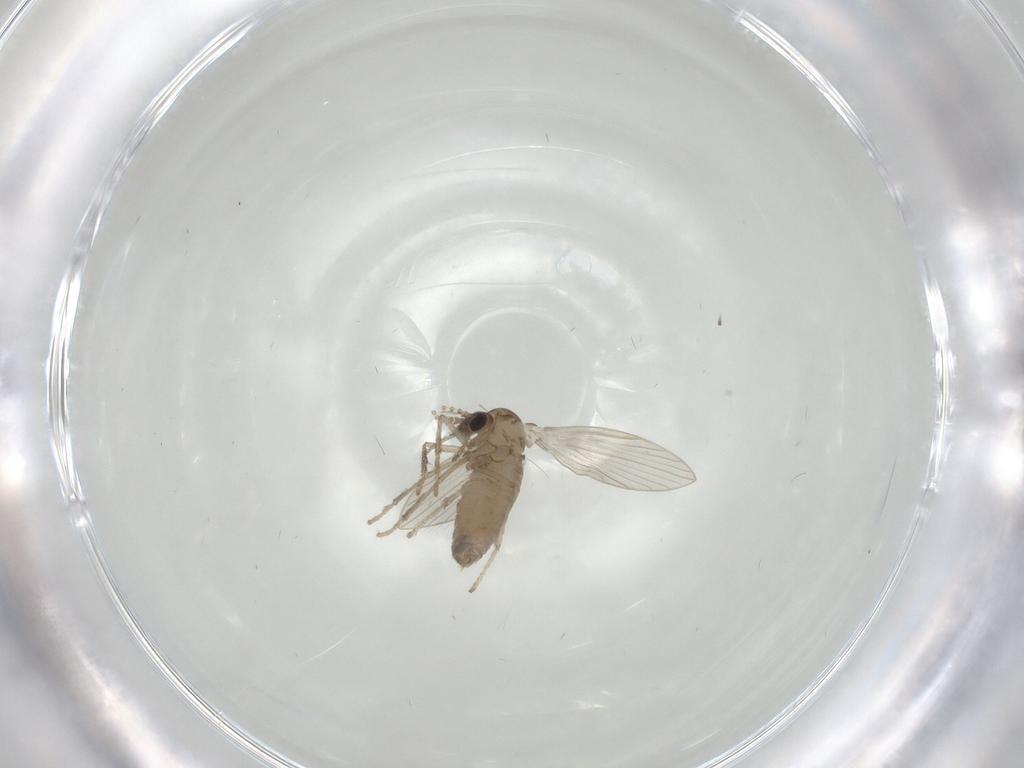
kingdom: Animalia
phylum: Arthropoda
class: Insecta
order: Diptera
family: Psychodidae
